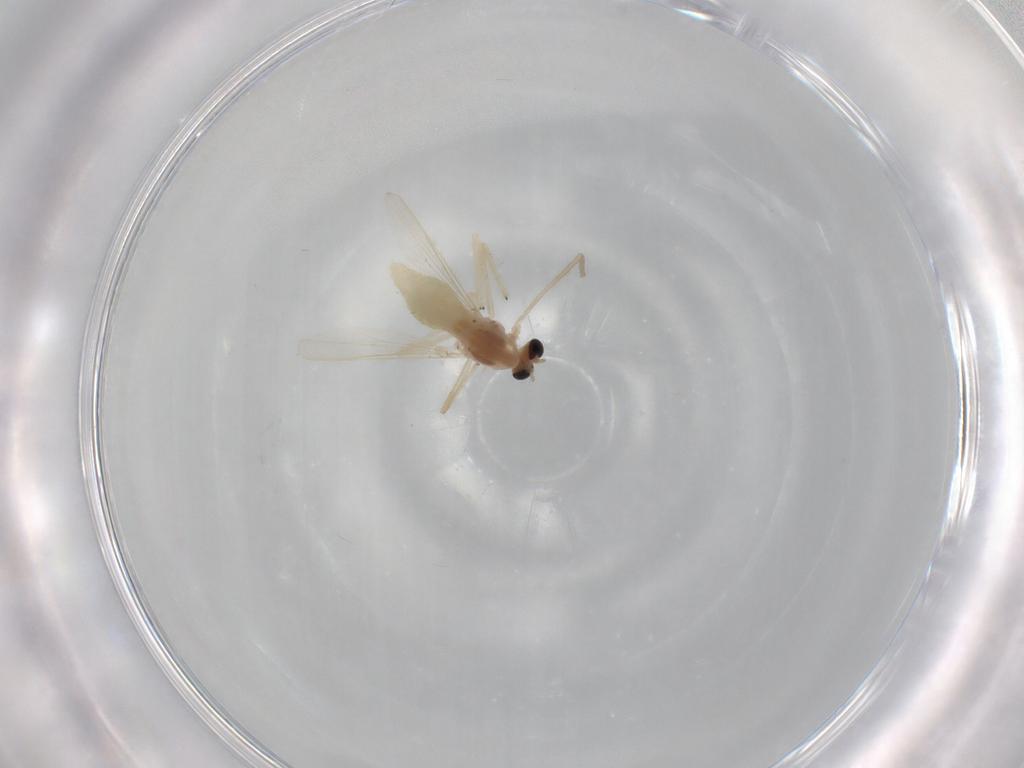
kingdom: Animalia
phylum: Arthropoda
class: Insecta
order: Diptera
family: Chironomidae
